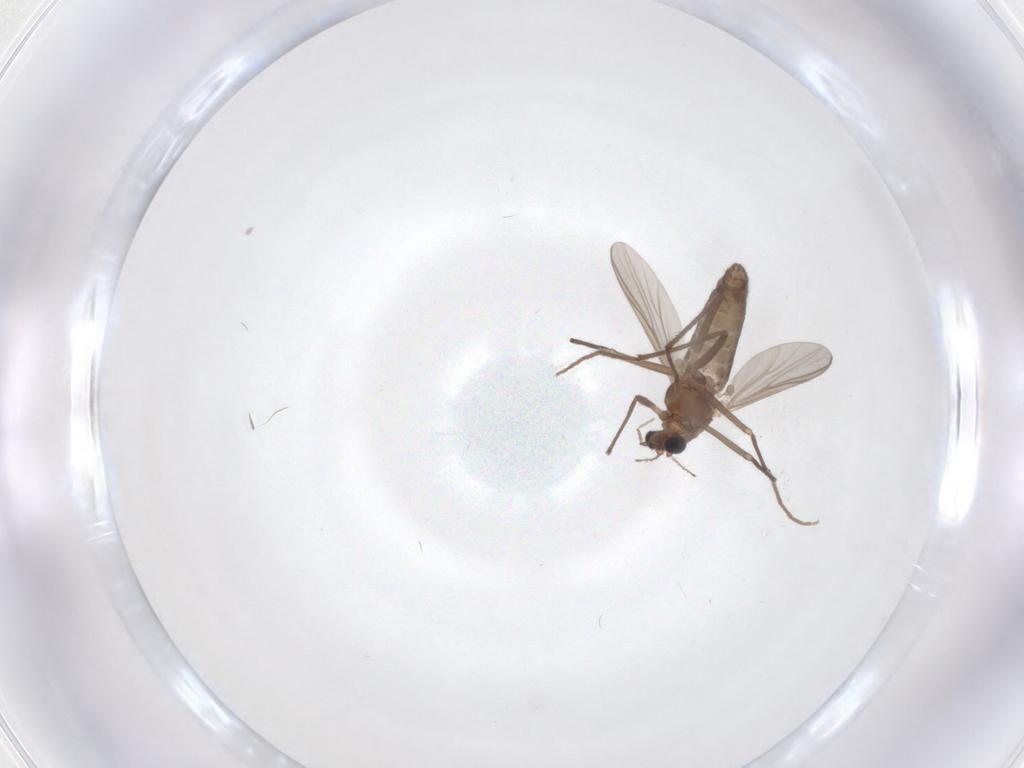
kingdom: Animalia
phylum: Arthropoda
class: Insecta
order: Diptera
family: Chironomidae
